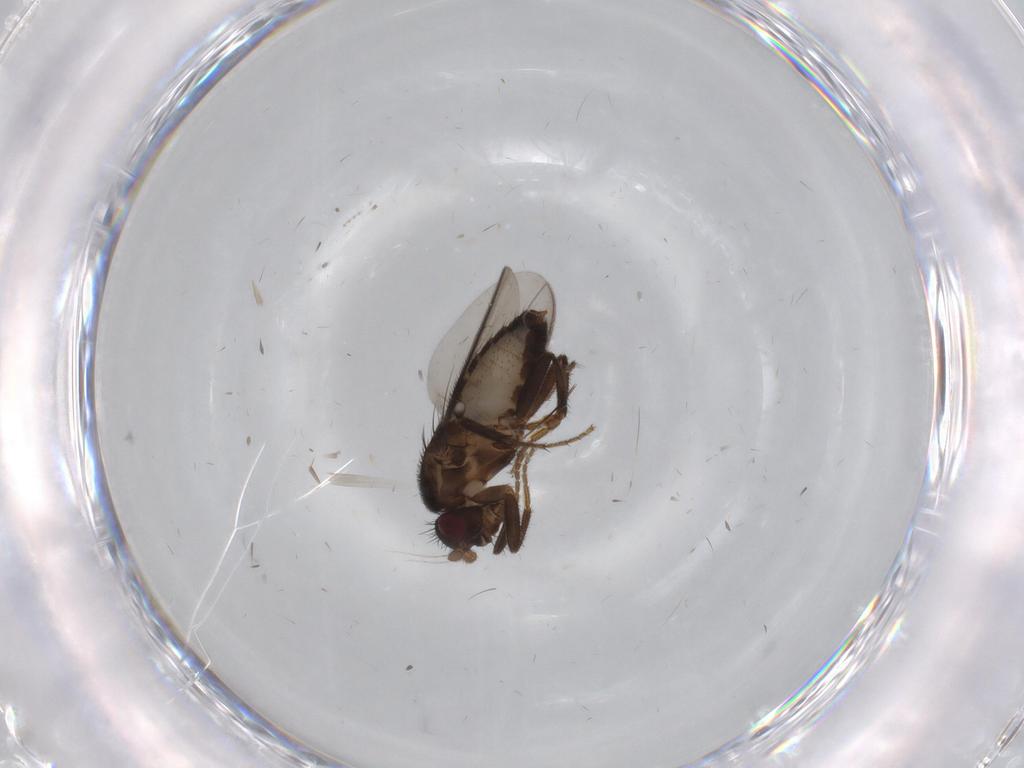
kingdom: Animalia
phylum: Arthropoda
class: Insecta
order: Diptera
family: Sphaeroceridae
